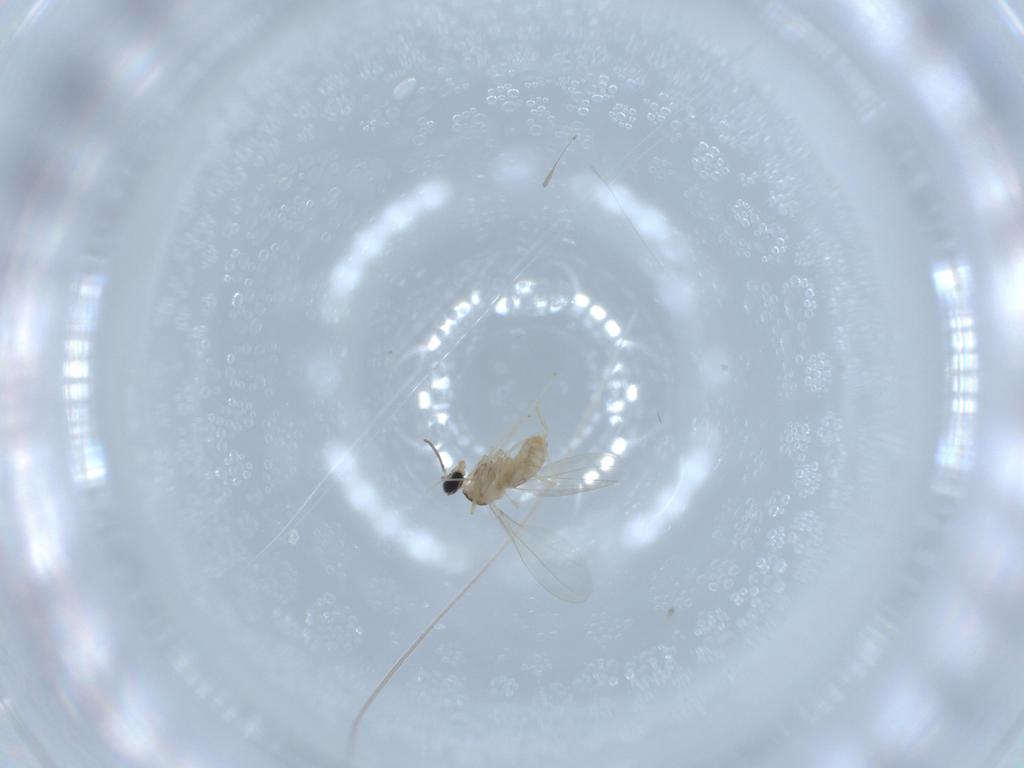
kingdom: Animalia
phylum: Arthropoda
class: Insecta
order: Diptera
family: Cecidomyiidae
